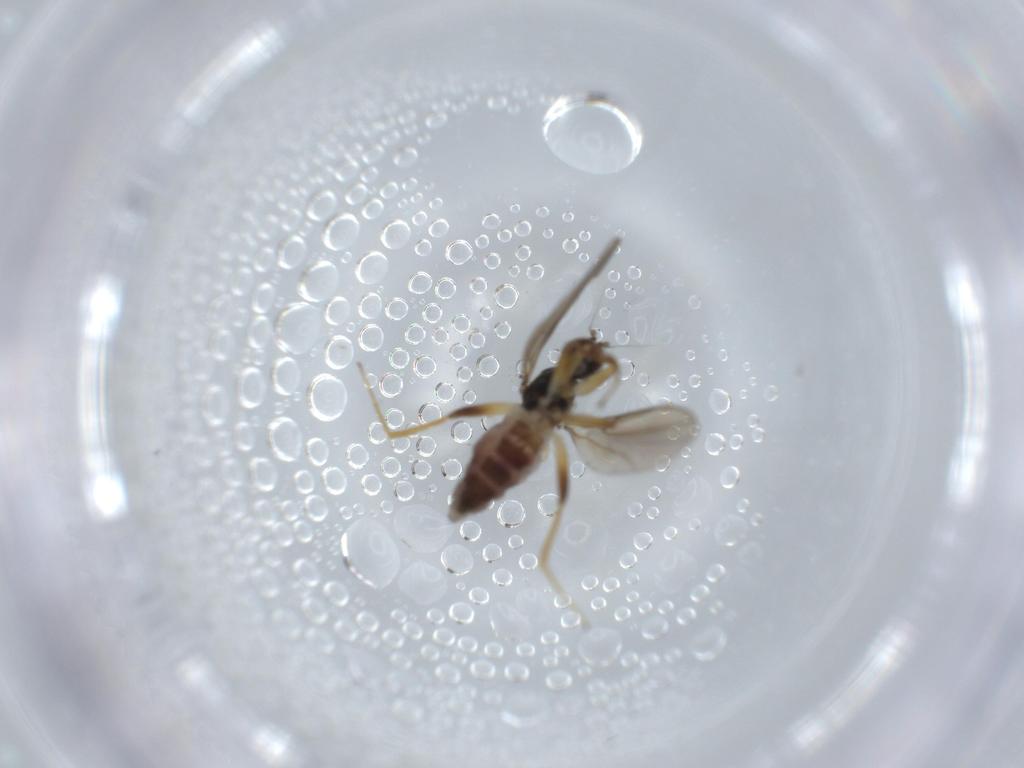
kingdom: Animalia
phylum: Arthropoda
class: Insecta
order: Diptera
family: Hybotidae
